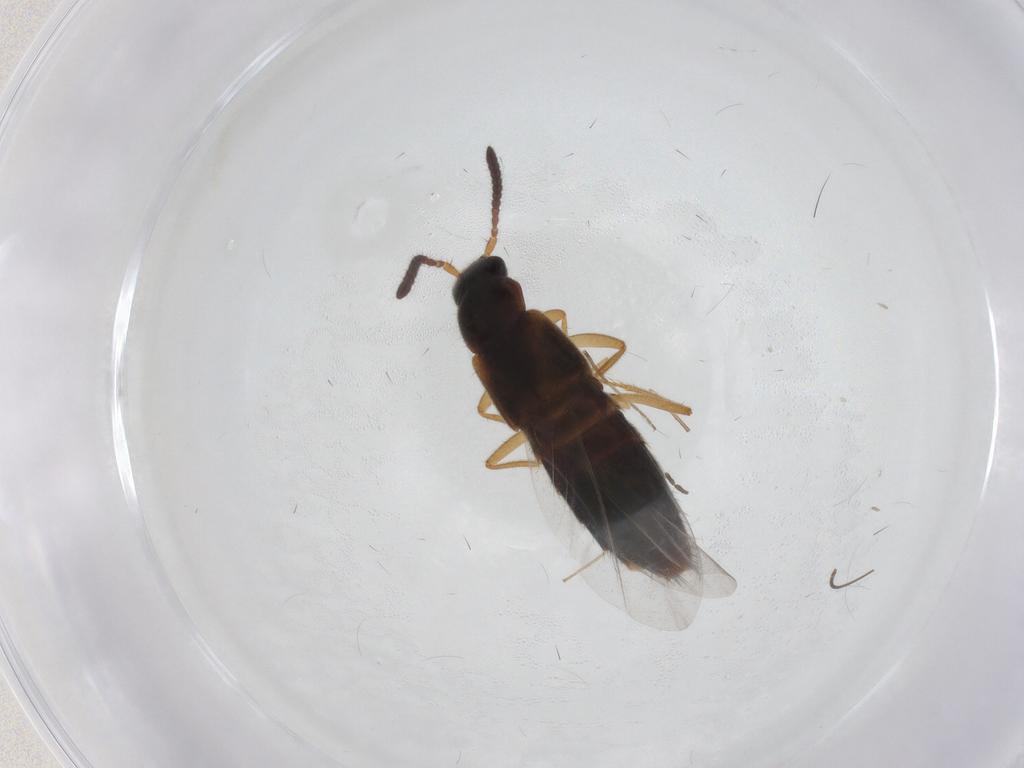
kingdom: Animalia
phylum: Arthropoda
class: Insecta
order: Coleoptera
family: Staphylinidae
